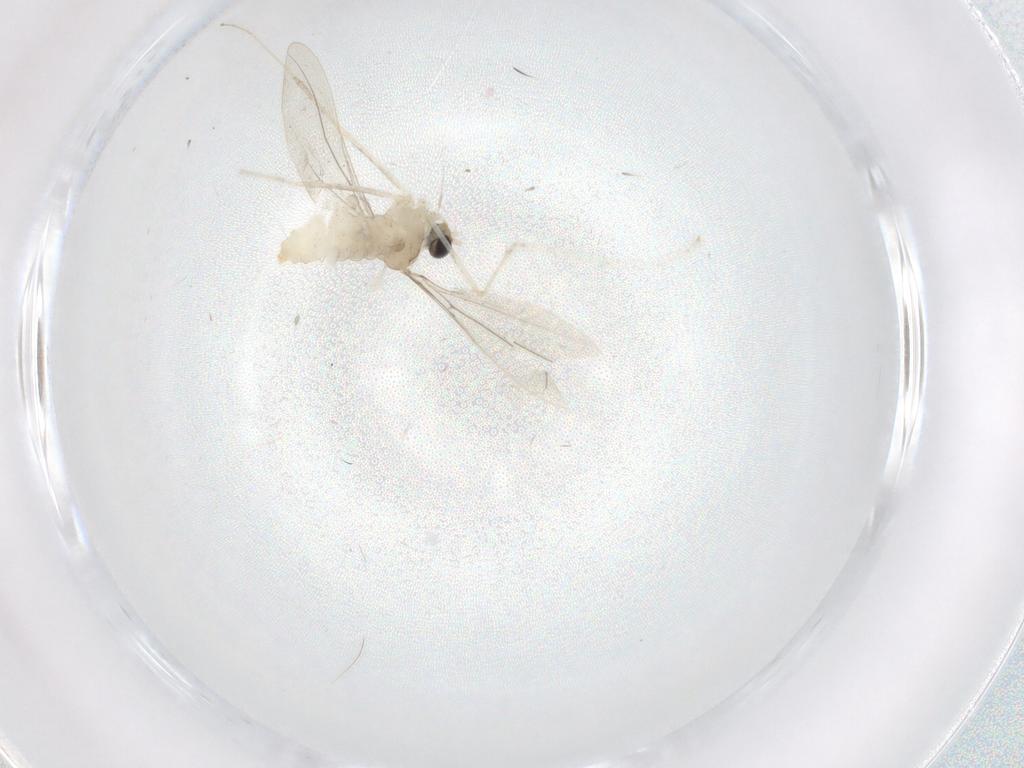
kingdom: Animalia
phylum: Arthropoda
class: Insecta
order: Diptera
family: Cecidomyiidae
